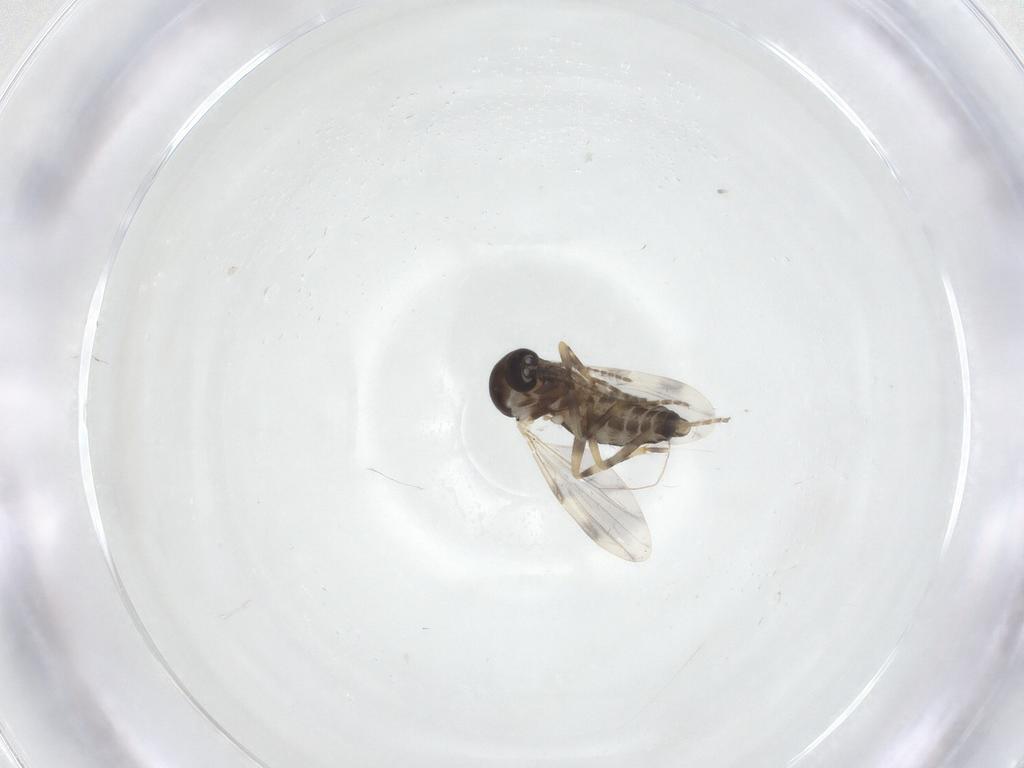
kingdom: Animalia
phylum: Arthropoda
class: Insecta
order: Diptera
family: Ceratopogonidae
